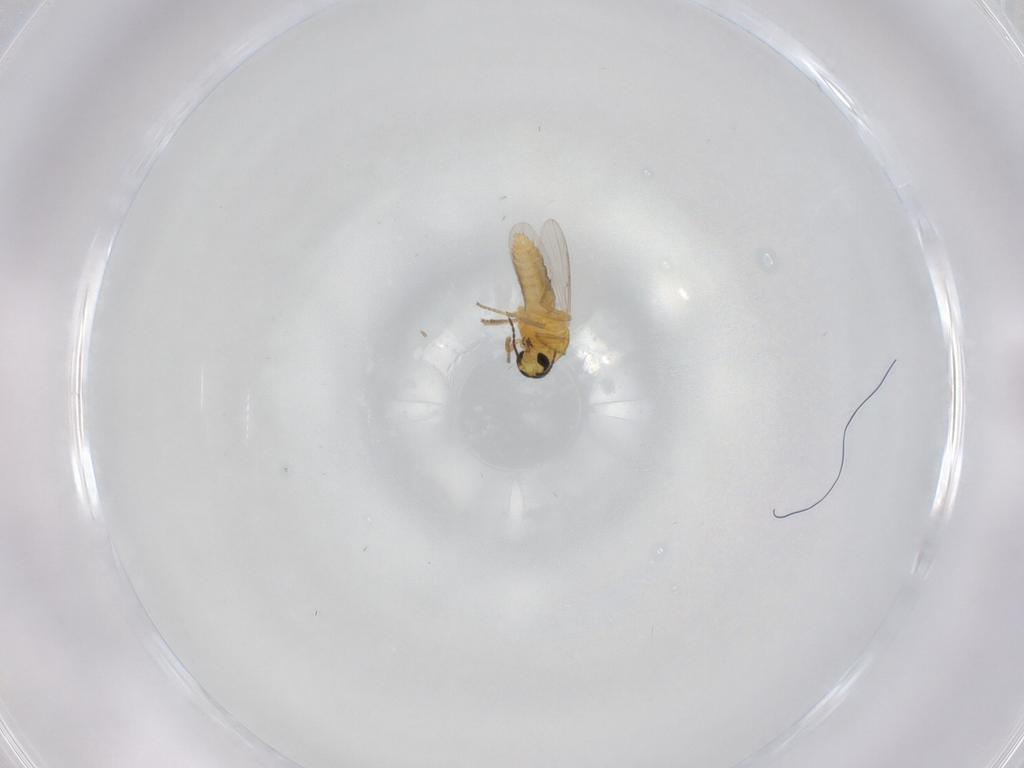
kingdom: Animalia
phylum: Arthropoda
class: Insecta
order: Diptera
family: Ceratopogonidae
